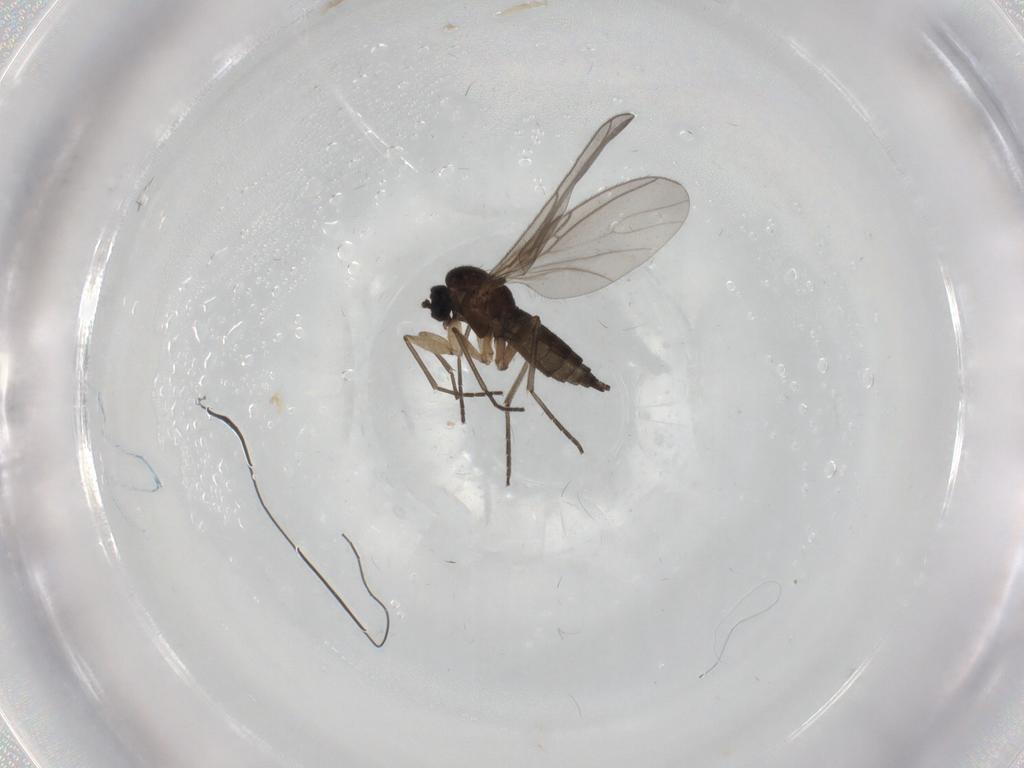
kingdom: Animalia
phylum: Arthropoda
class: Insecta
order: Diptera
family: Sciaridae
